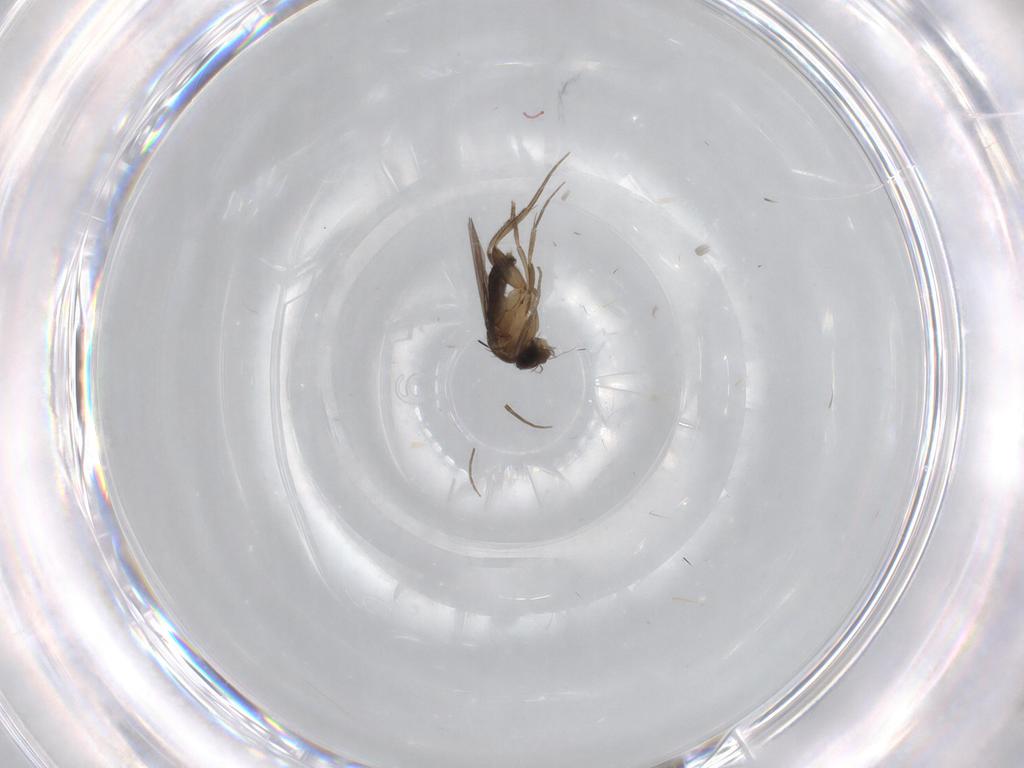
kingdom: Animalia
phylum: Arthropoda
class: Insecta
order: Diptera
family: Phoridae
